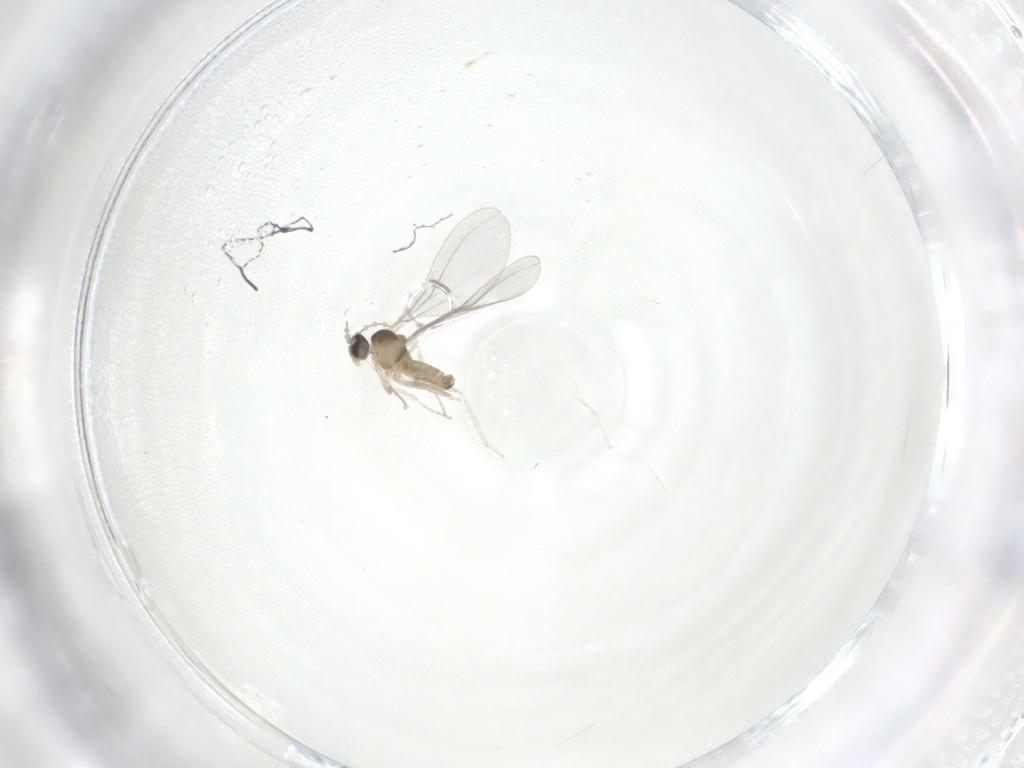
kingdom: Animalia
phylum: Arthropoda
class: Insecta
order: Diptera
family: Cecidomyiidae
